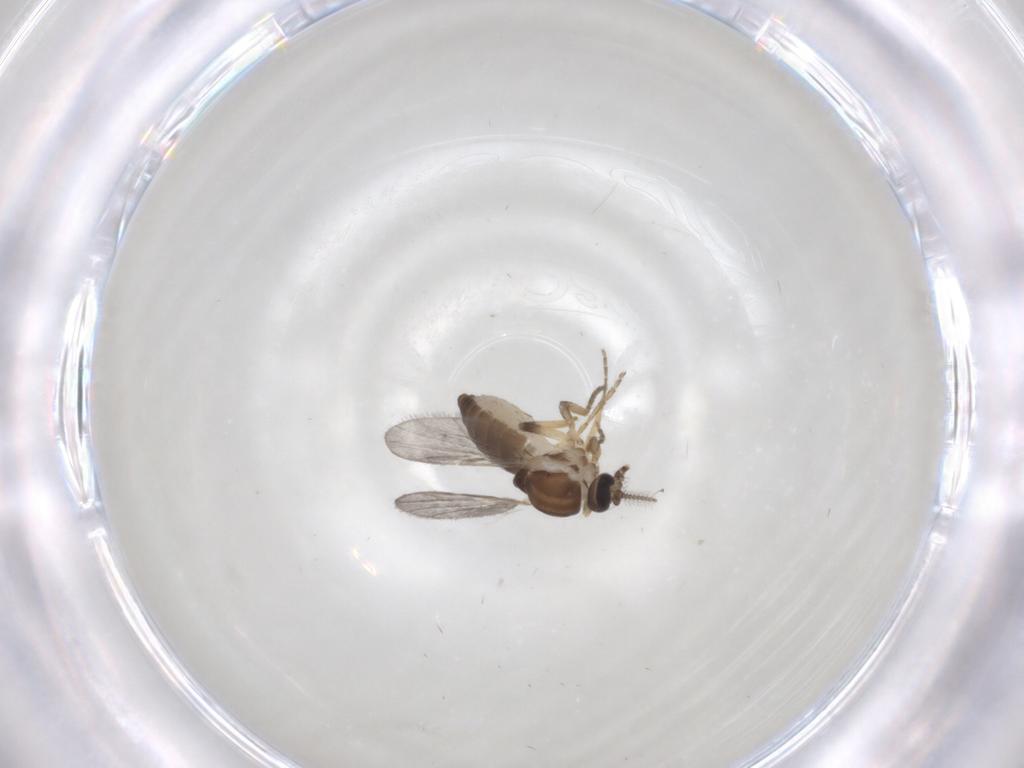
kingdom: Animalia
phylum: Arthropoda
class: Insecta
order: Diptera
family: Ceratopogonidae
